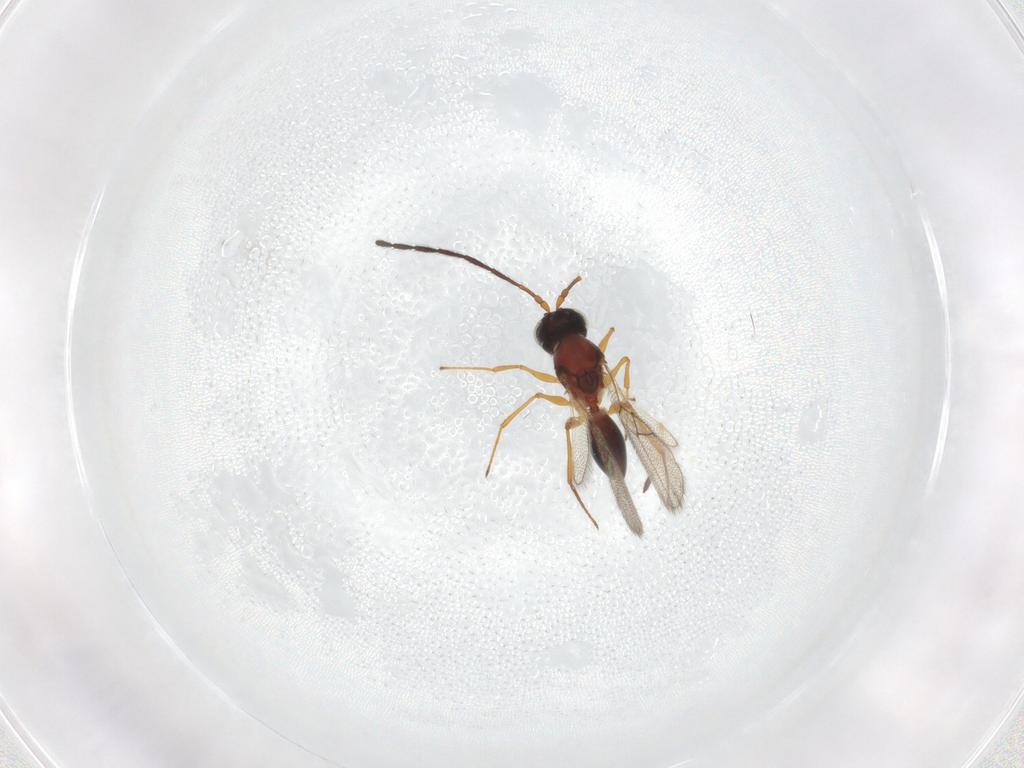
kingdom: Animalia
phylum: Arthropoda
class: Insecta
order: Hymenoptera
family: Figitidae
